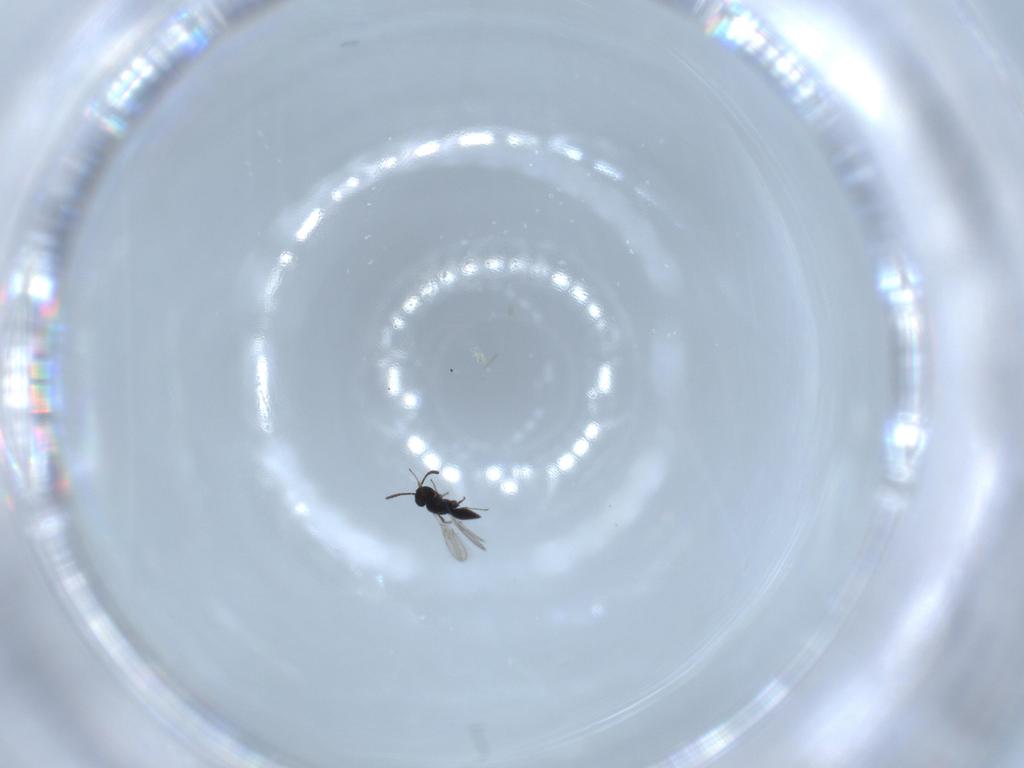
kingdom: Animalia
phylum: Arthropoda
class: Insecta
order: Hymenoptera
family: Scelionidae
